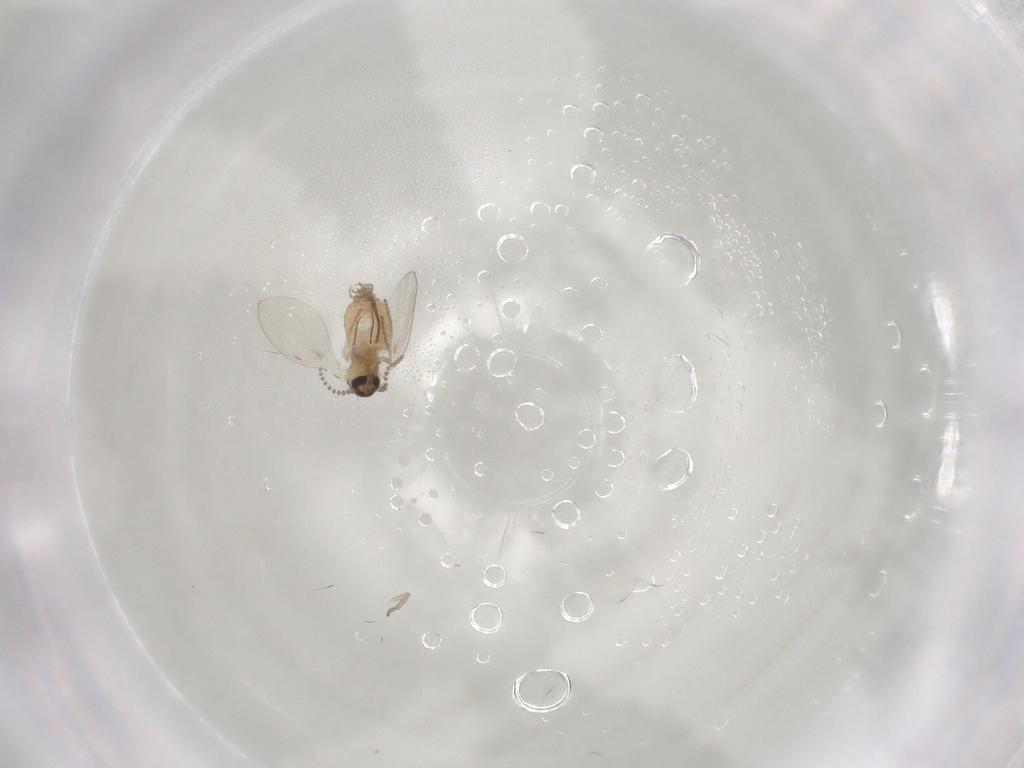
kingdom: Animalia
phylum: Arthropoda
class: Insecta
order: Diptera
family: Psychodidae
